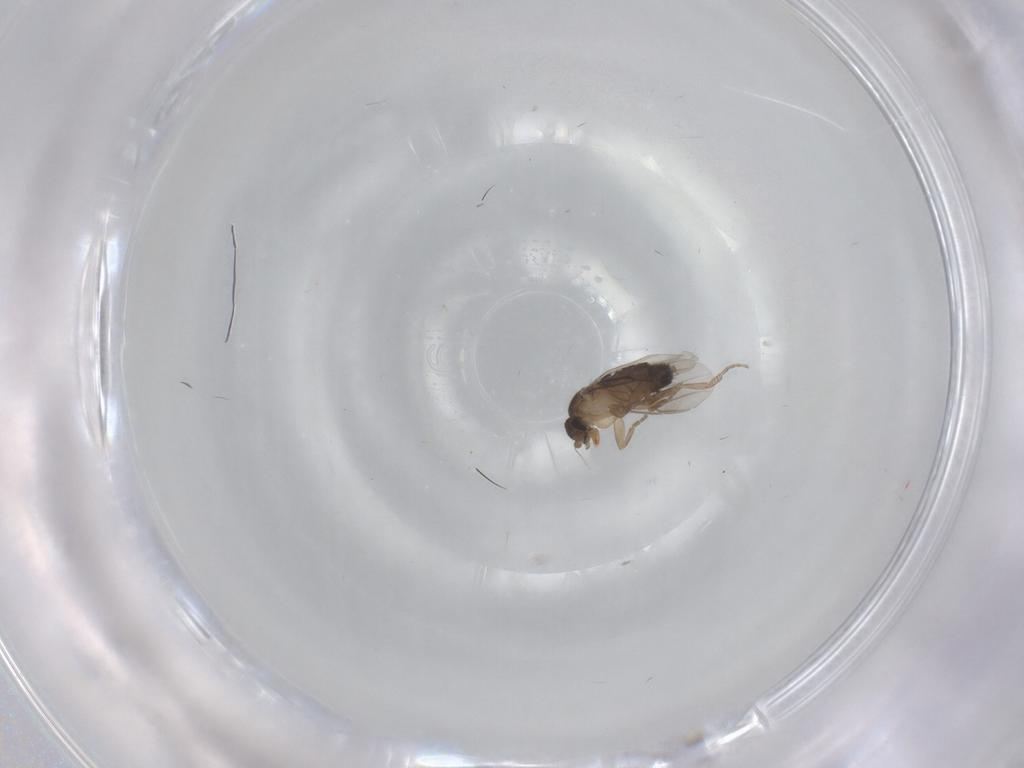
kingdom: Animalia
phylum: Arthropoda
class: Insecta
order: Diptera
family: Phoridae
